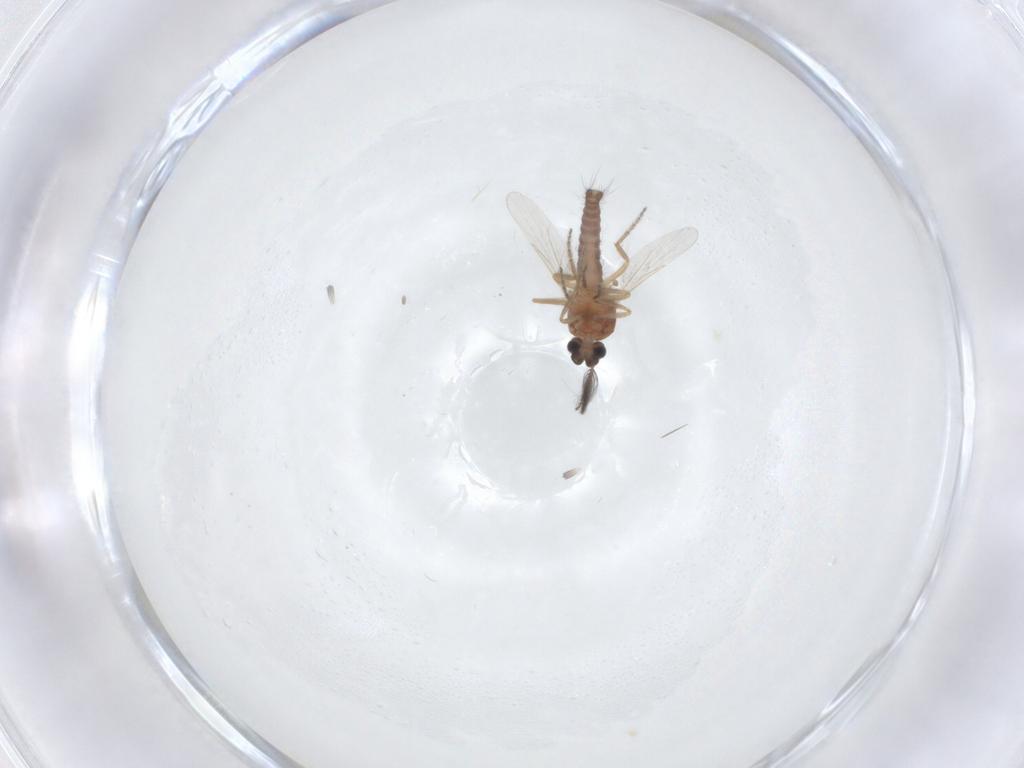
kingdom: Animalia
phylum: Arthropoda
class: Insecta
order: Diptera
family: Ceratopogonidae
